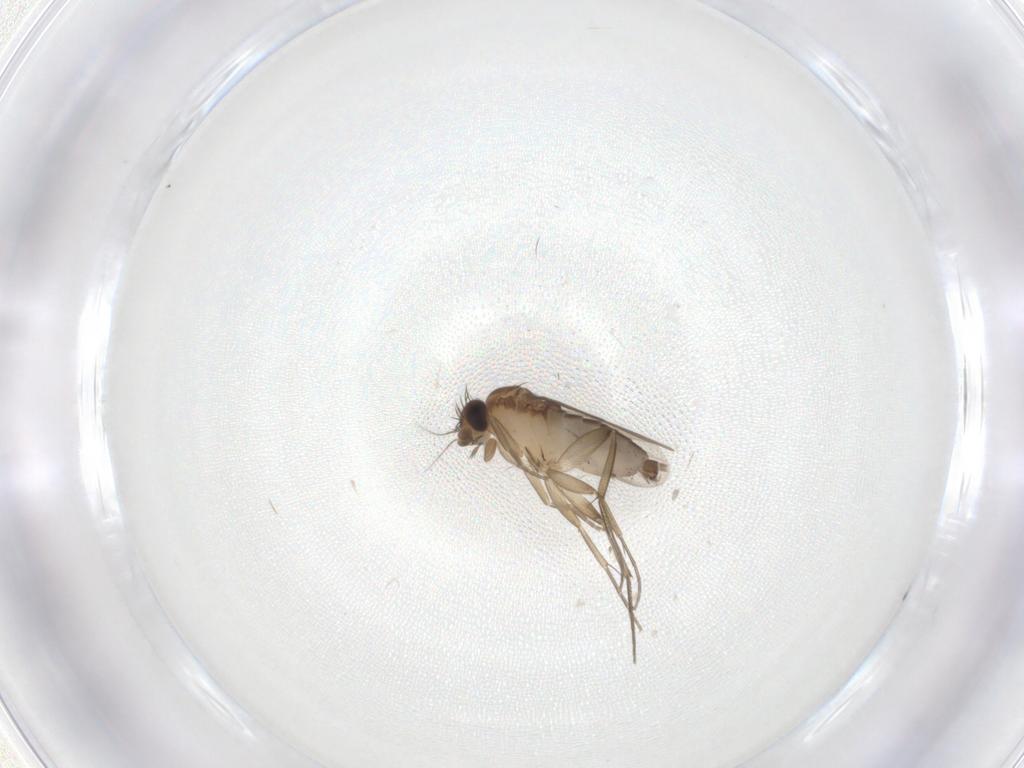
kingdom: Animalia
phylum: Arthropoda
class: Insecta
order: Diptera
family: Phoridae
